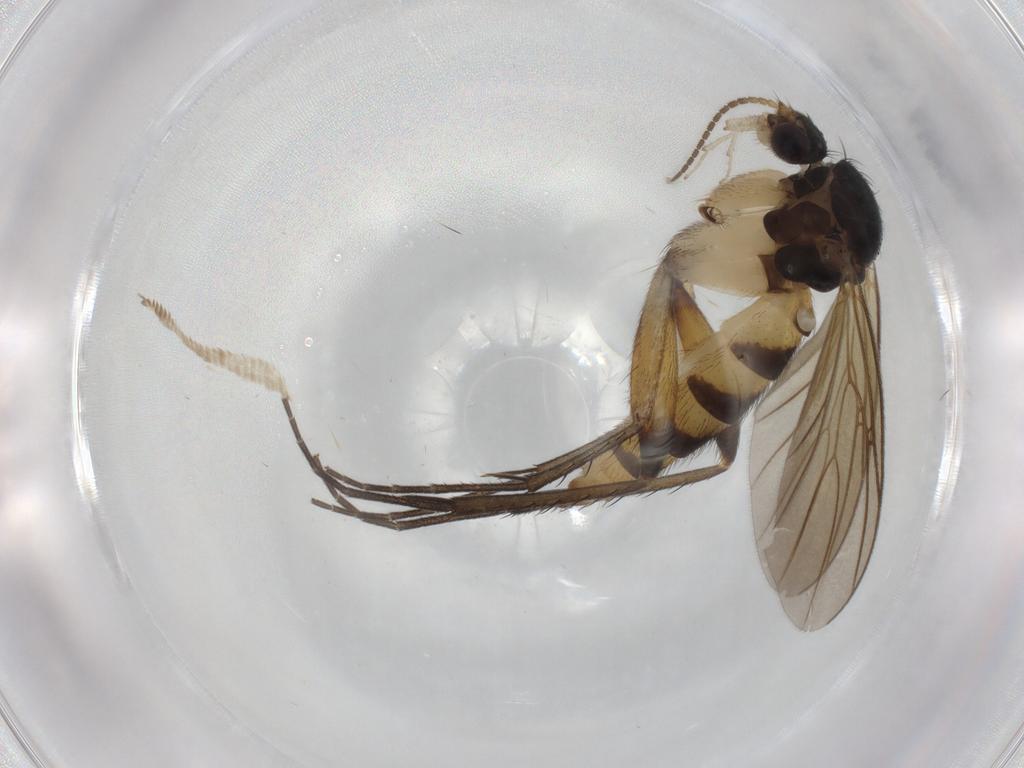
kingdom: Animalia
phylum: Arthropoda
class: Insecta
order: Diptera
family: Mycetophilidae
